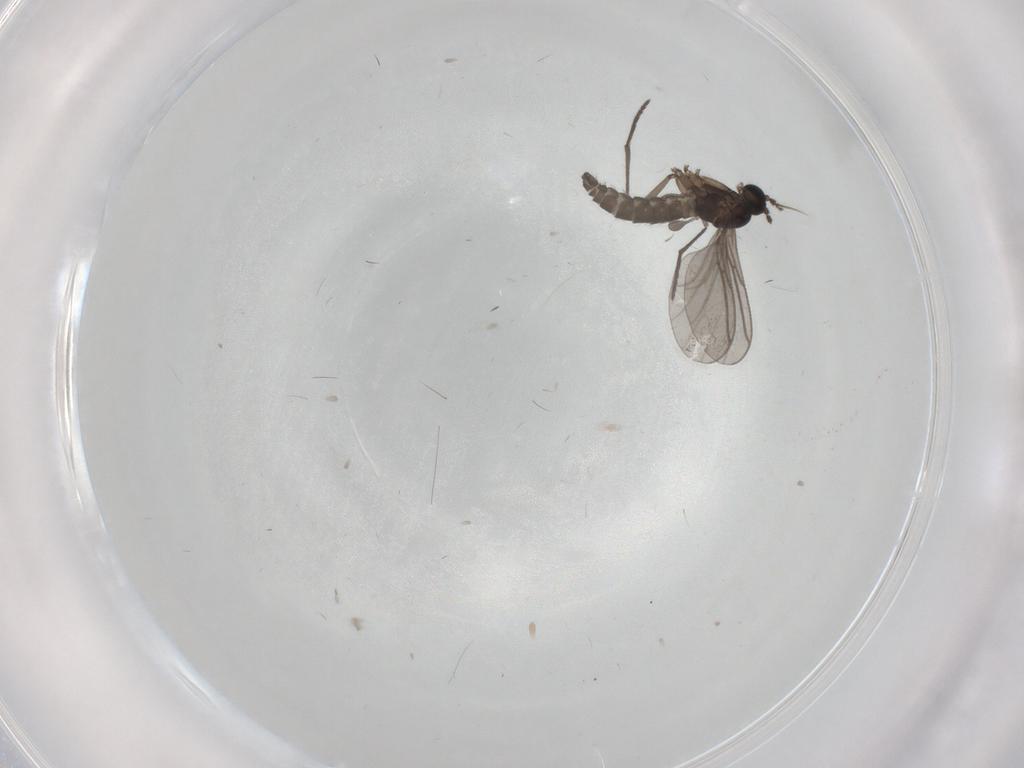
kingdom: Animalia
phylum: Arthropoda
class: Insecta
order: Diptera
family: Sciaridae
